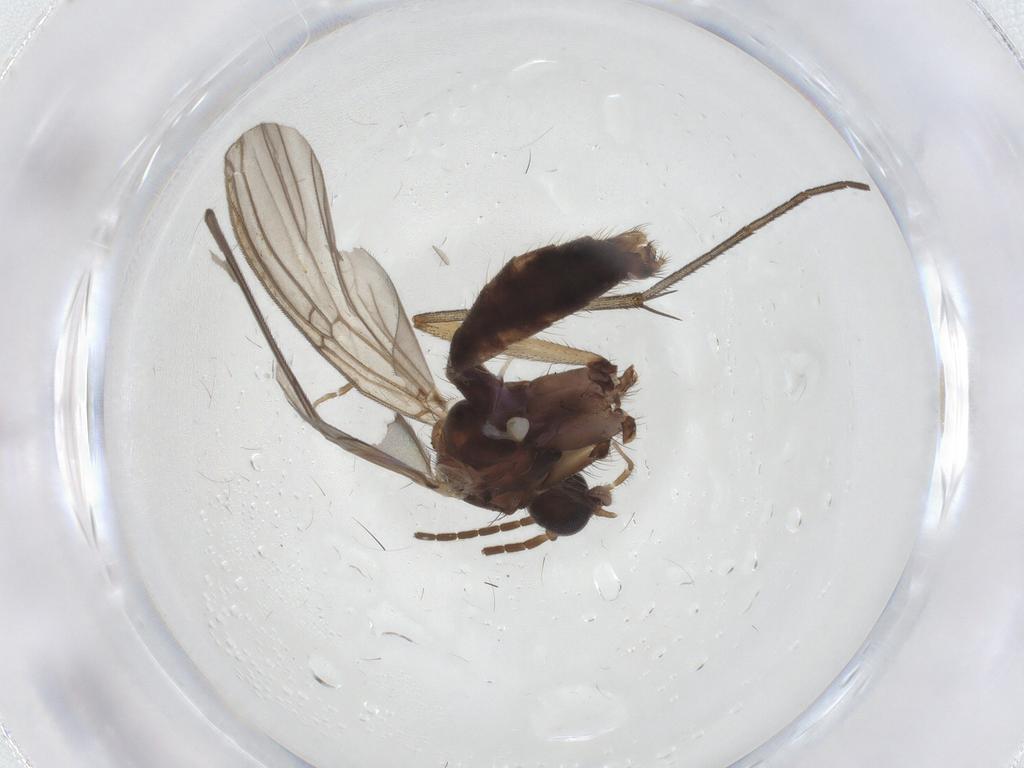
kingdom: Animalia
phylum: Arthropoda
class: Insecta
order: Diptera
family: Mycetophilidae
